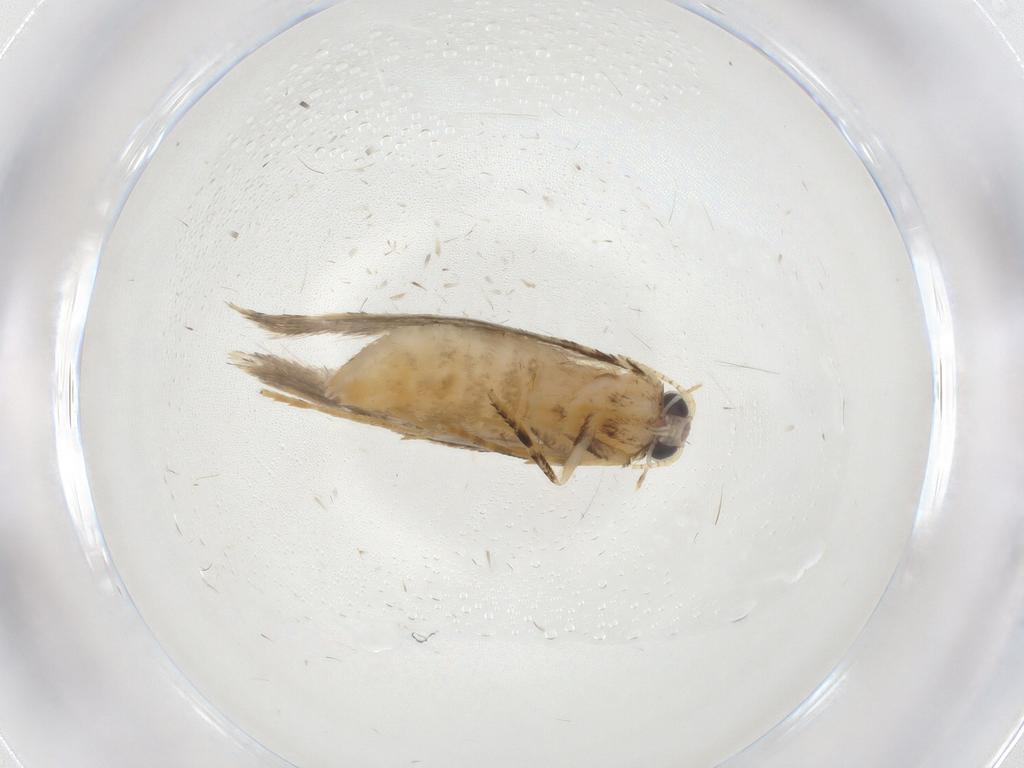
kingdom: Animalia
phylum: Arthropoda
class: Insecta
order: Lepidoptera
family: Tineidae
